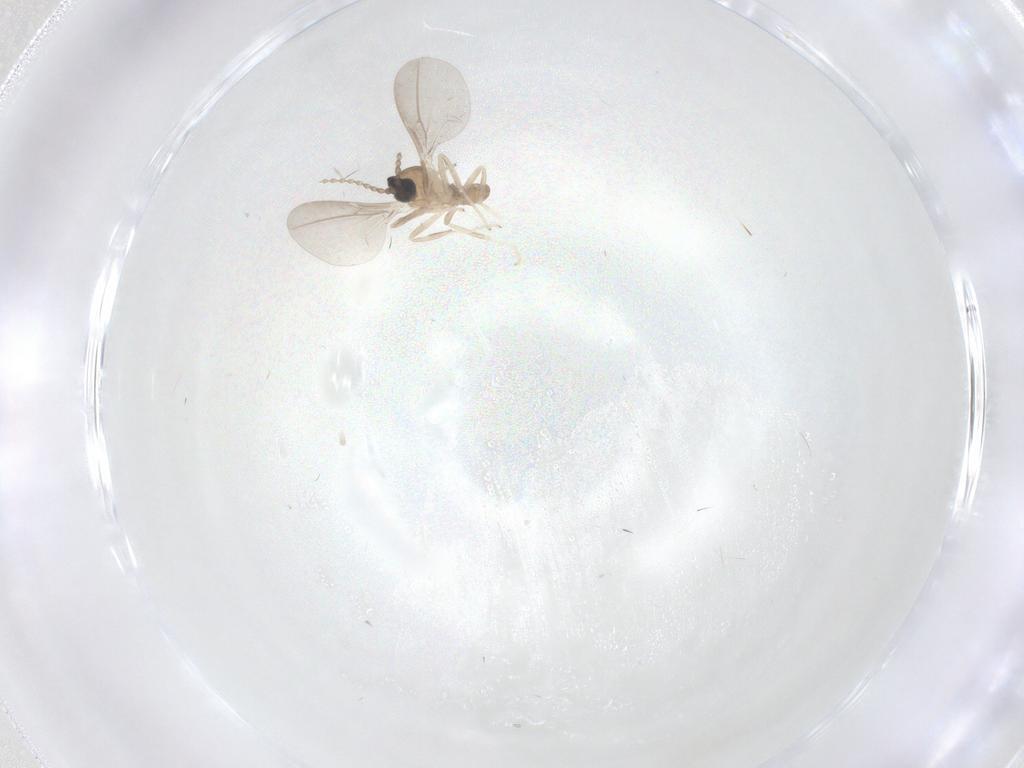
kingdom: Animalia
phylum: Arthropoda
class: Insecta
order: Diptera
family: Cecidomyiidae
